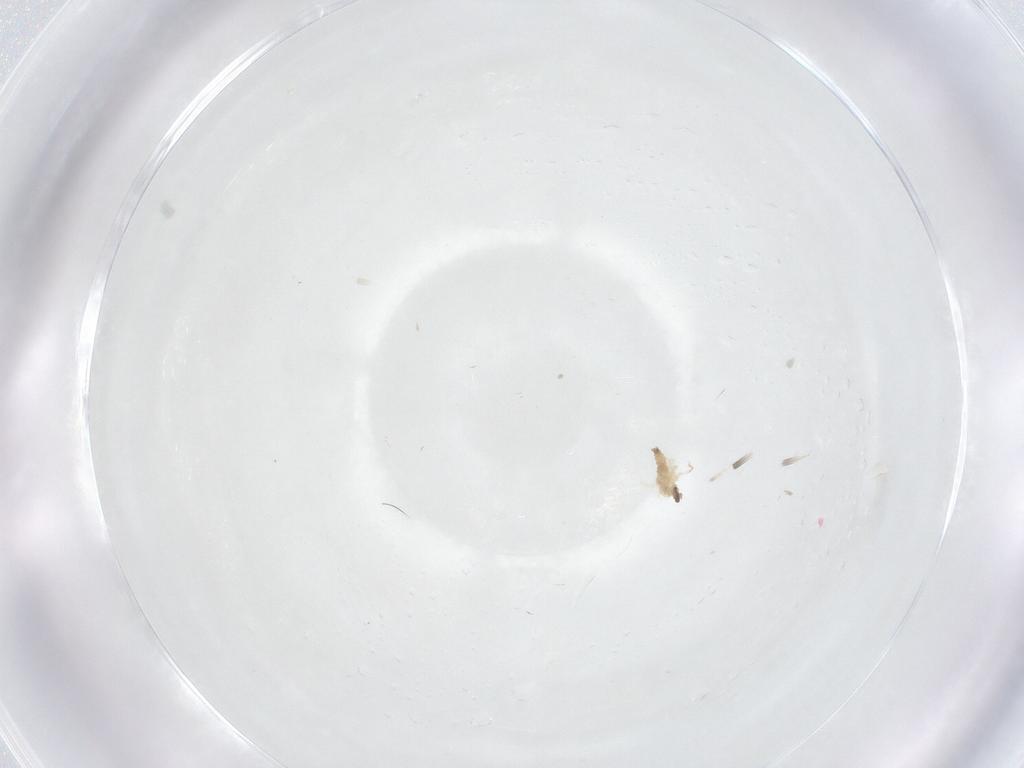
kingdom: Animalia
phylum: Arthropoda
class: Insecta
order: Diptera
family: Cecidomyiidae
